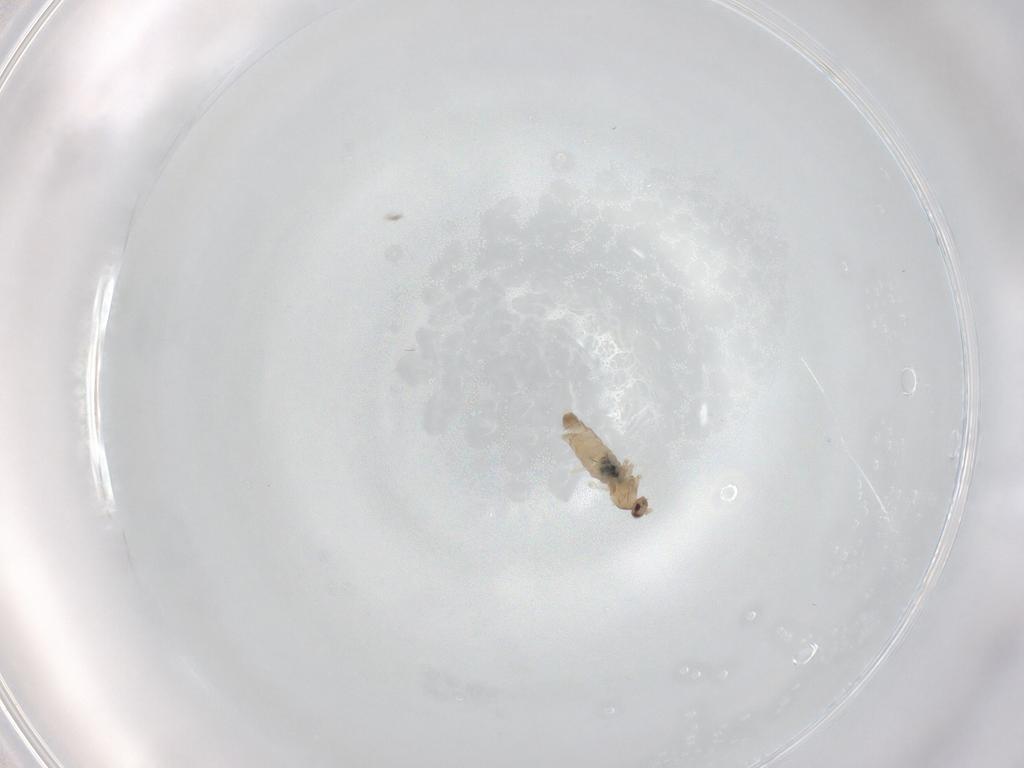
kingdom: Animalia
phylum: Arthropoda
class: Insecta
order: Diptera
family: Cecidomyiidae
